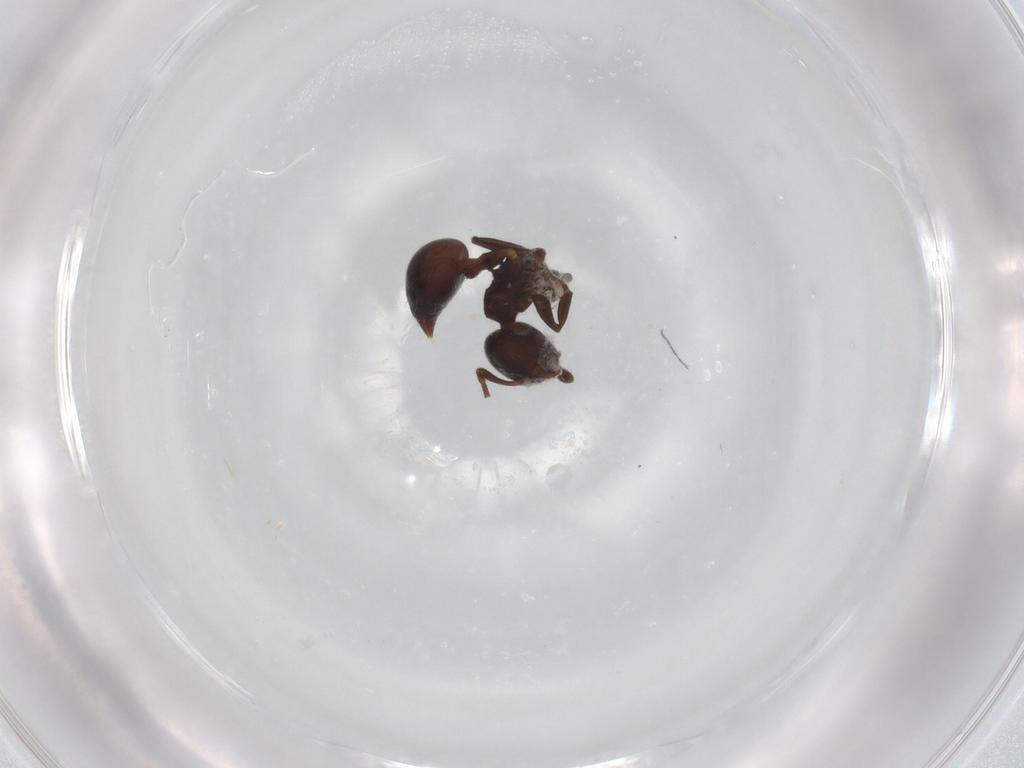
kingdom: Animalia
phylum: Arthropoda
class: Insecta
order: Hymenoptera
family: Formicidae
